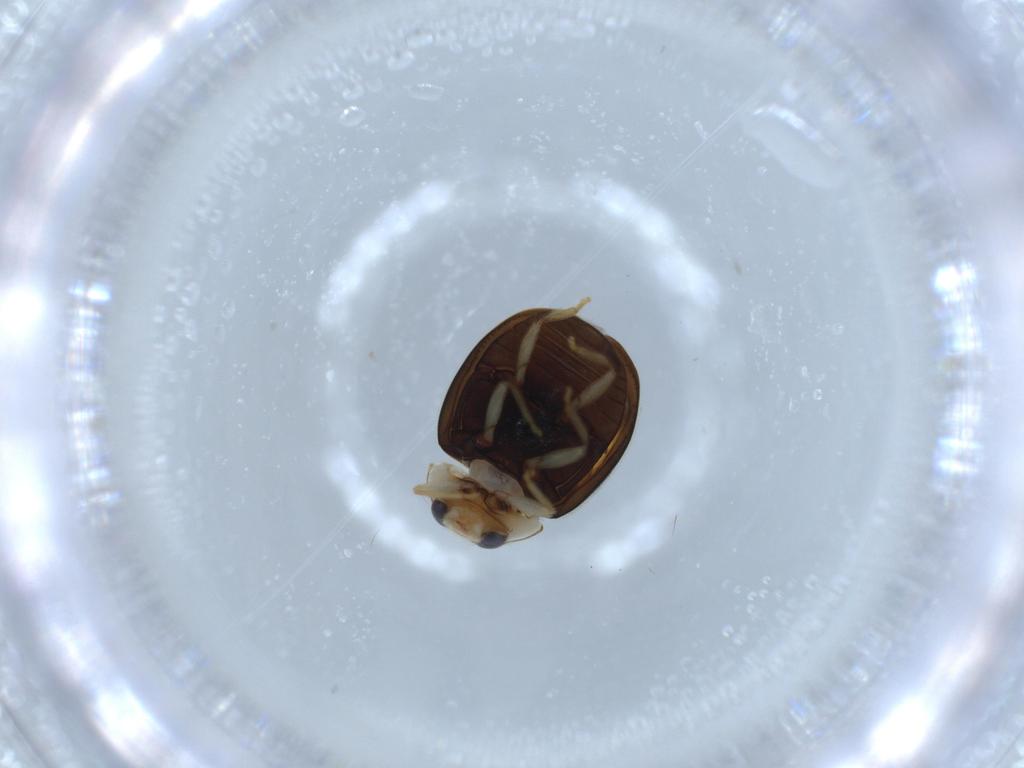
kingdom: Animalia
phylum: Arthropoda
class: Insecta
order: Coleoptera
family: Coccinellidae
